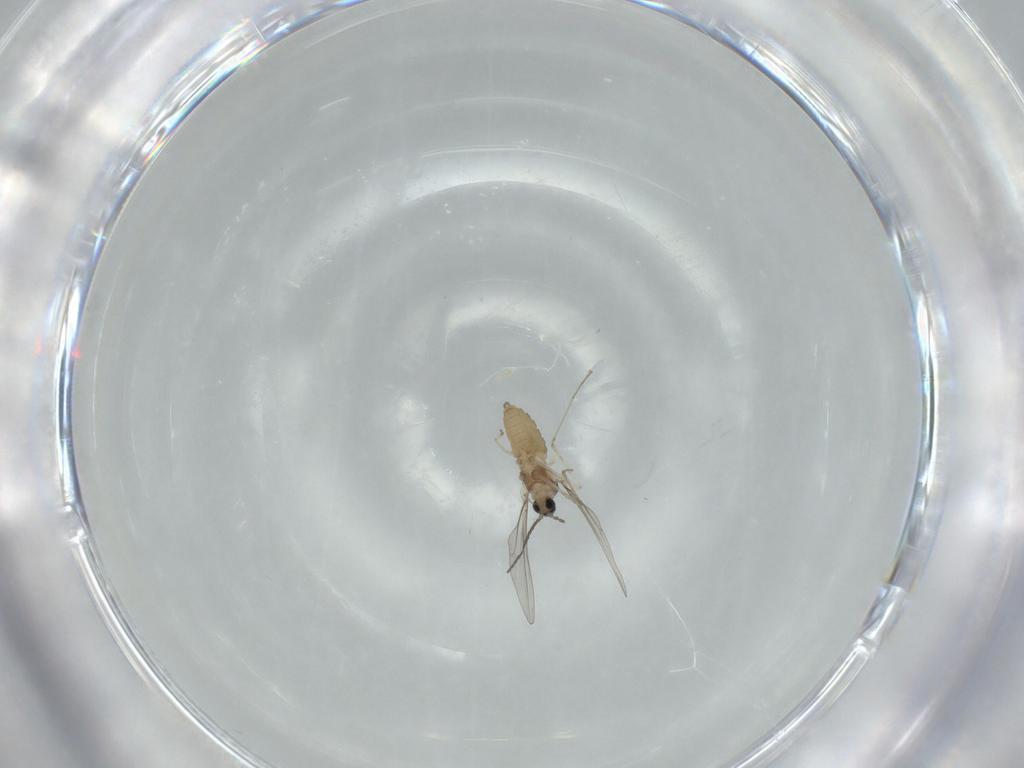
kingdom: Animalia
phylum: Arthropoda
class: Insecta
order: Diptera
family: Cecidomyiidae
